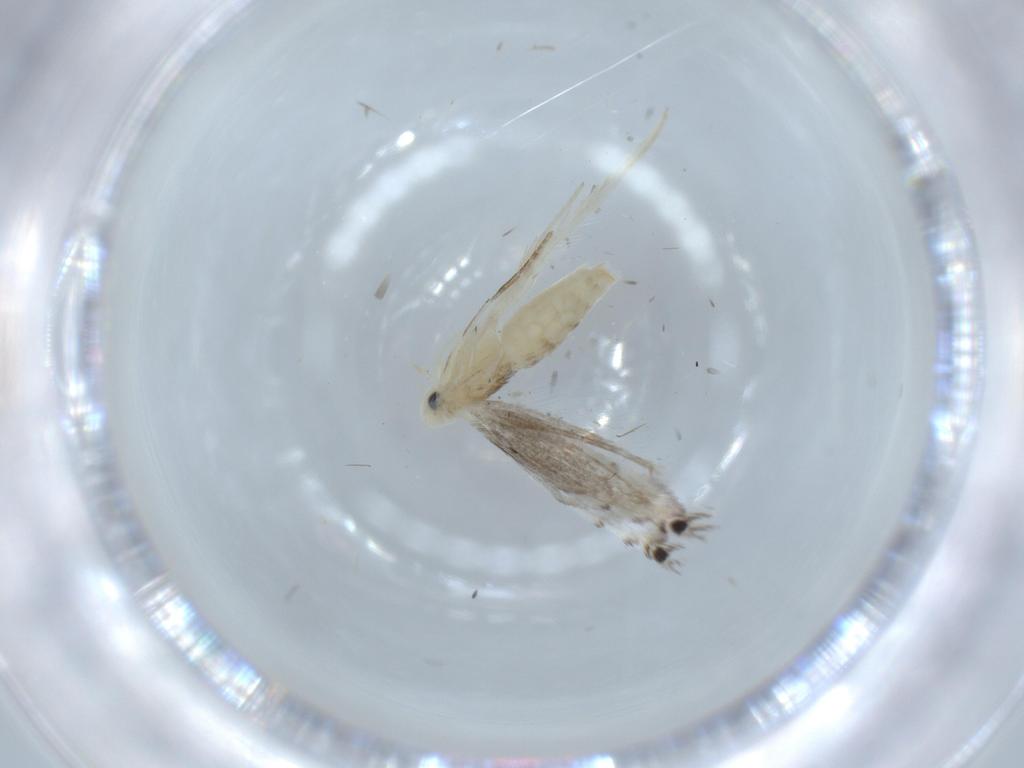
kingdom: Animalia
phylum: Arthropoda
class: Insecta
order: Lepidoptera
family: Gracillariidae
